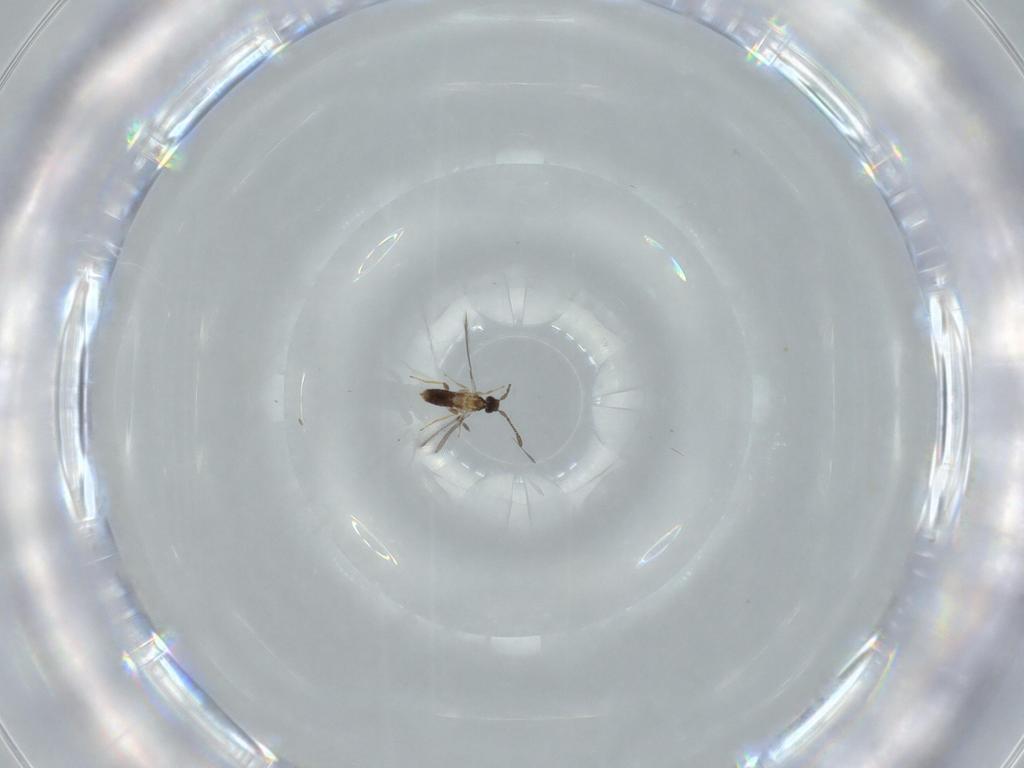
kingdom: Animalia
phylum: Arthropoda
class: Insecta
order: Hymenoptera
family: Mymaridae
